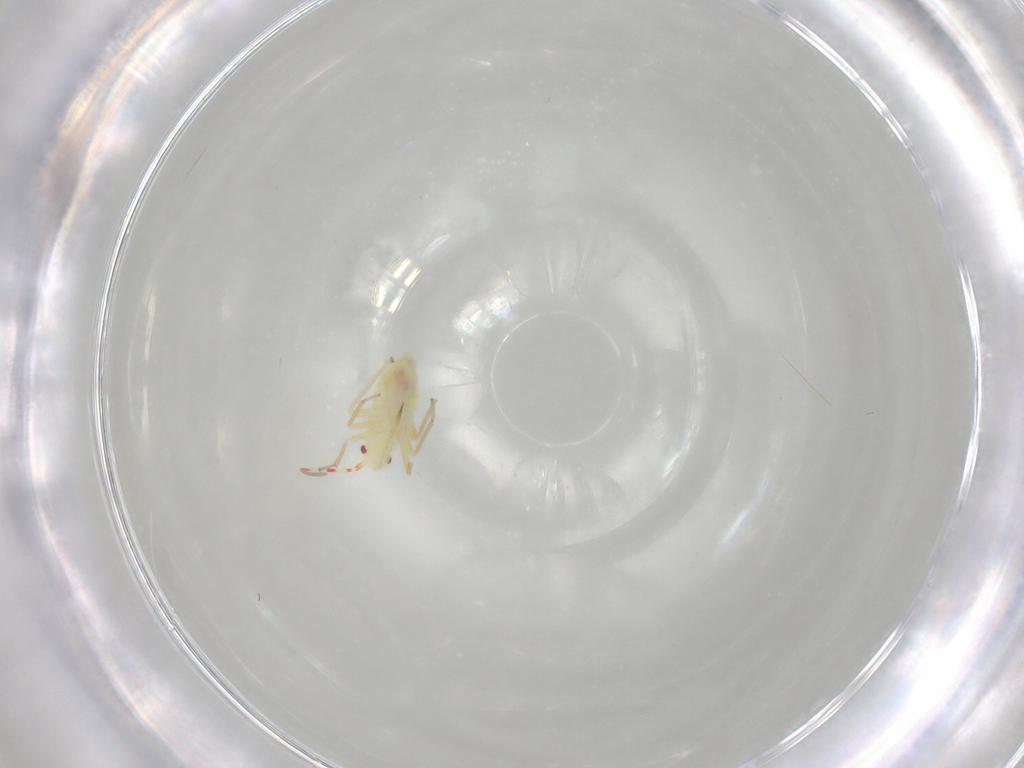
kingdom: Animalia
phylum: Arthropoda
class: Insecta
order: Hemiptera
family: Miridae
